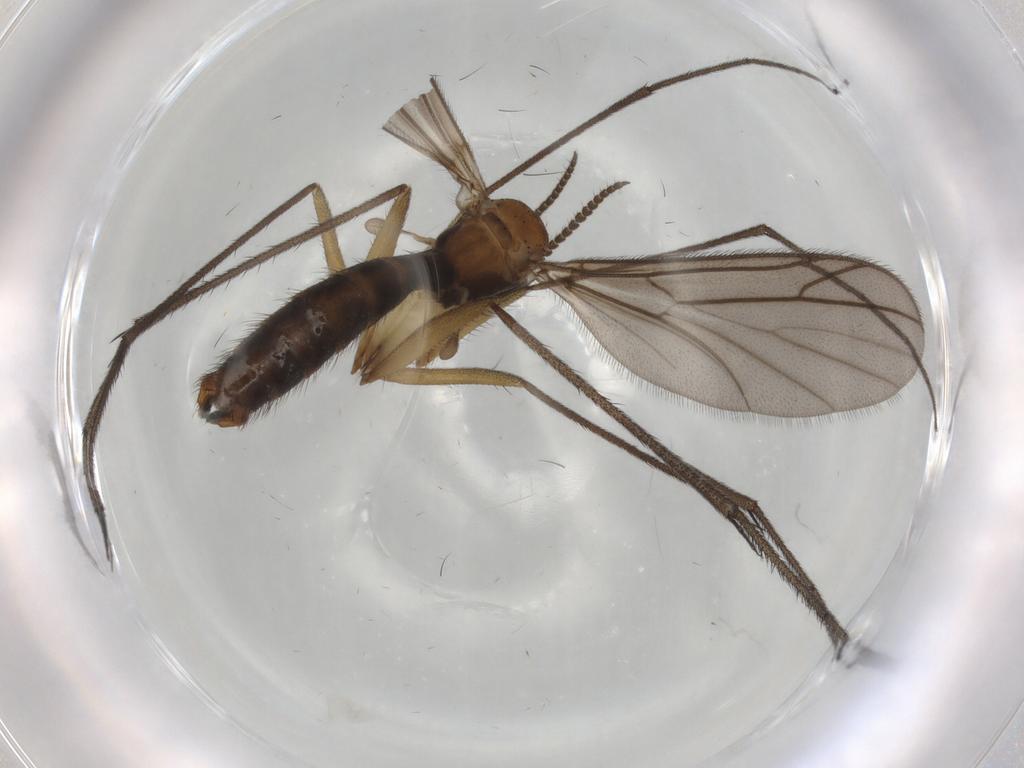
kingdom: Animalia
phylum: Arthropoda
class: Insecta
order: Diptera
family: Ditomyiidae
